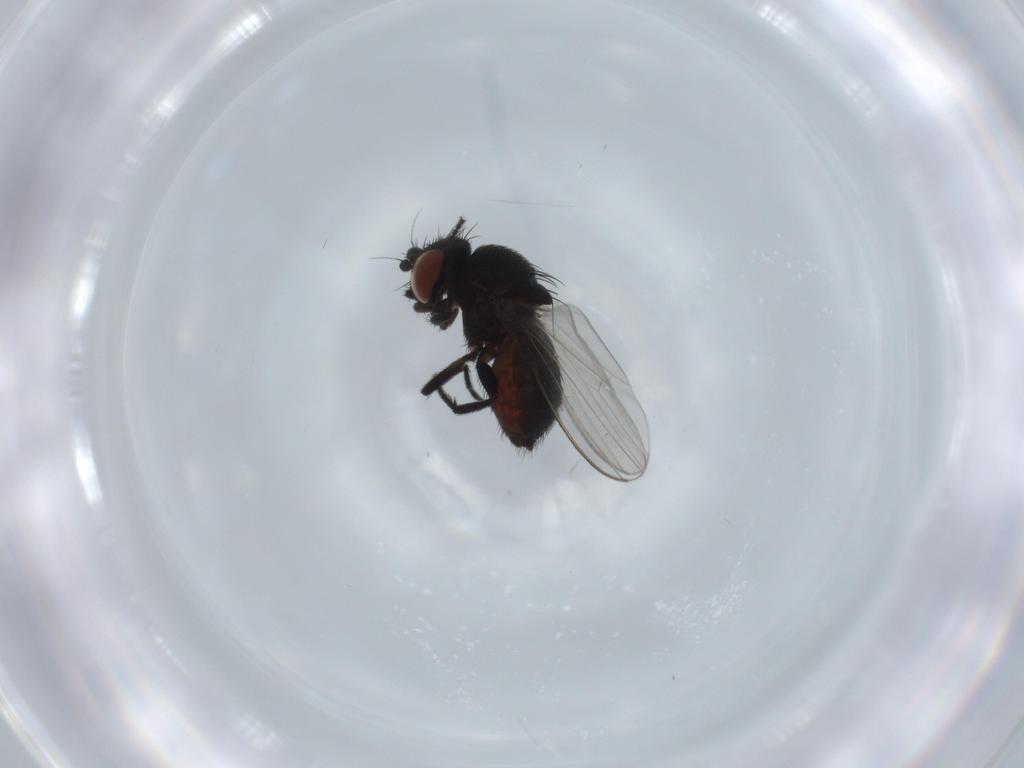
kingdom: Animalia
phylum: Arthropoda
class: Insecta
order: Diptera
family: Milichiidae
